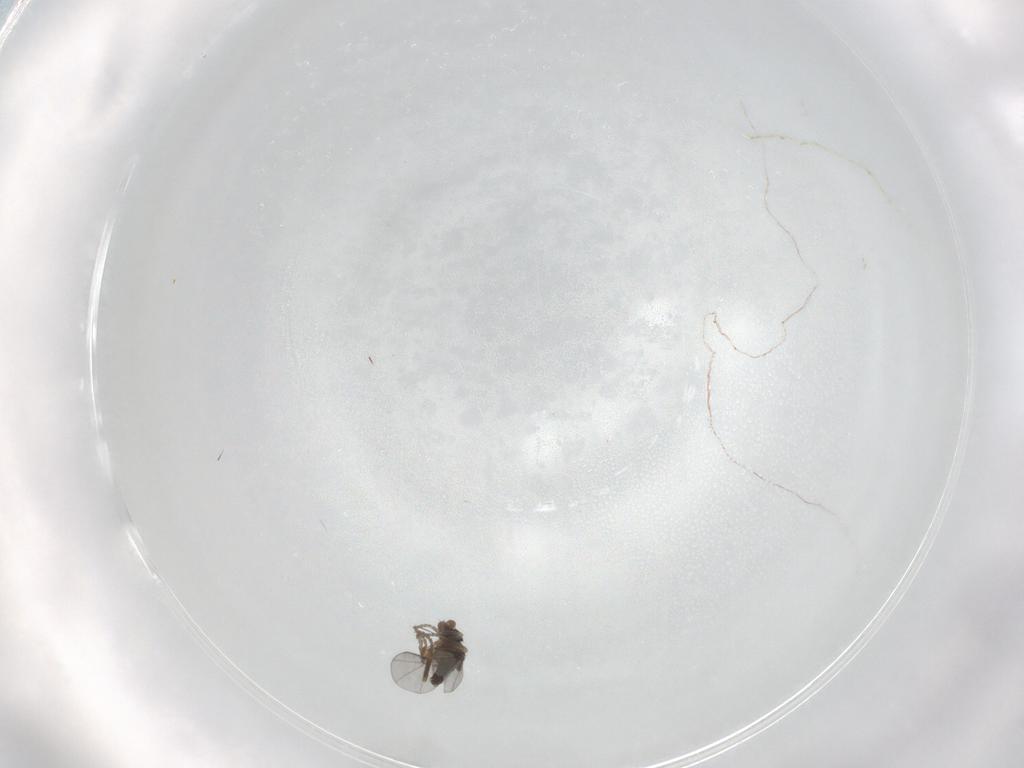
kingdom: Animalia
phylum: Arthropoda
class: Insecta
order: Diptera
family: Phoridae
